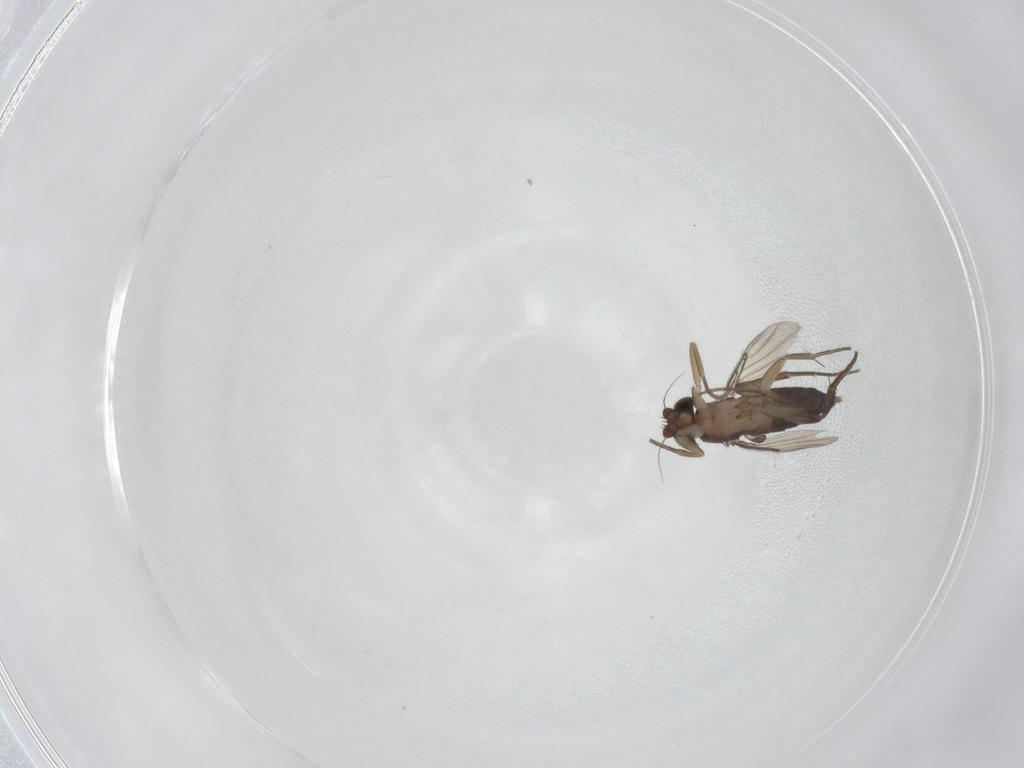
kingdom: Animalia
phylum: Arthropoda
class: Insecta
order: Diptera
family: Phoridae
